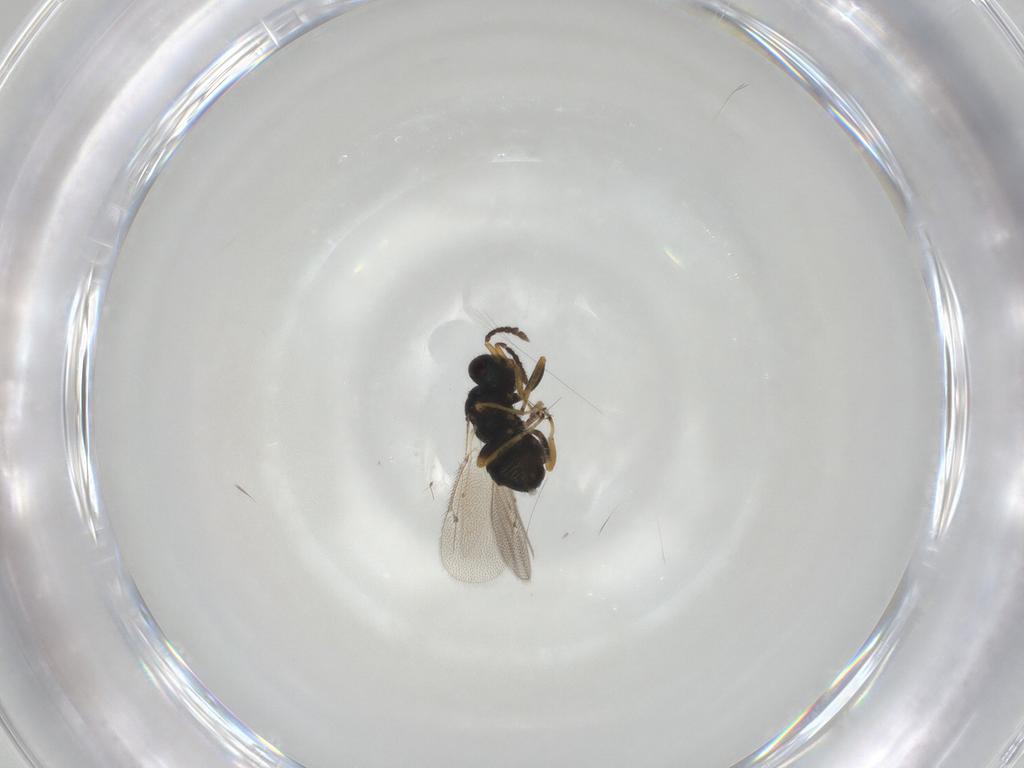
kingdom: Animalia
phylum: Arthropoda
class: Insecta
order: Hymenoptera
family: Eulophidae
